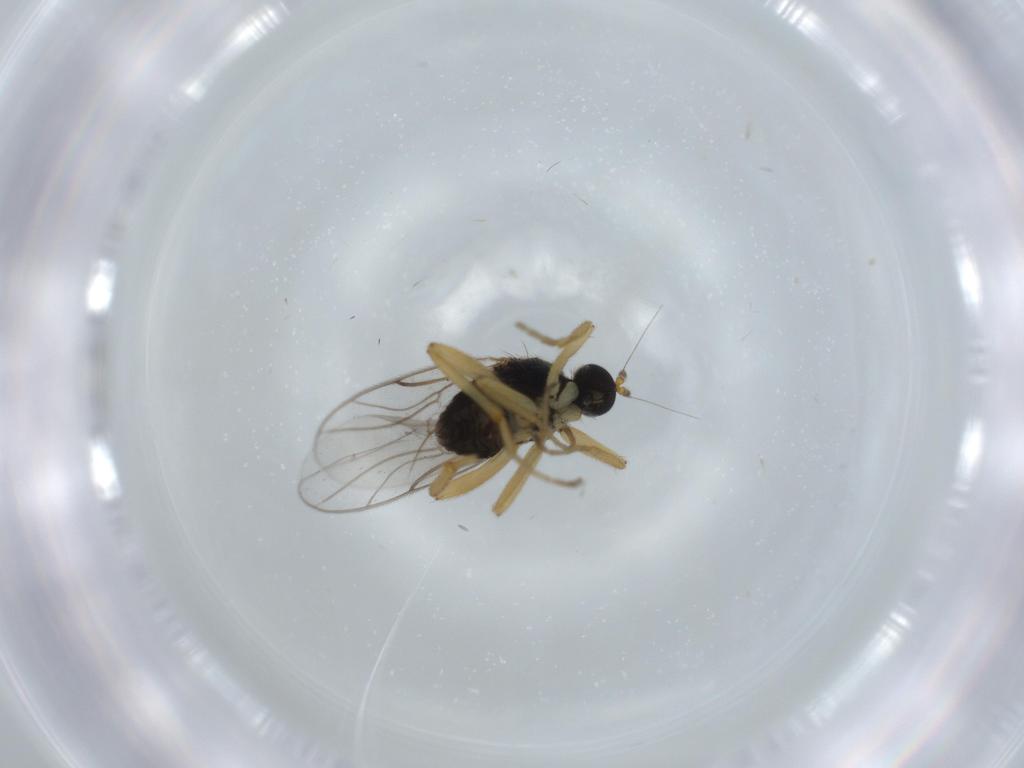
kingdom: Animalia
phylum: Arthropoda
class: Insecta
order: Diptera
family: Hybotidae
